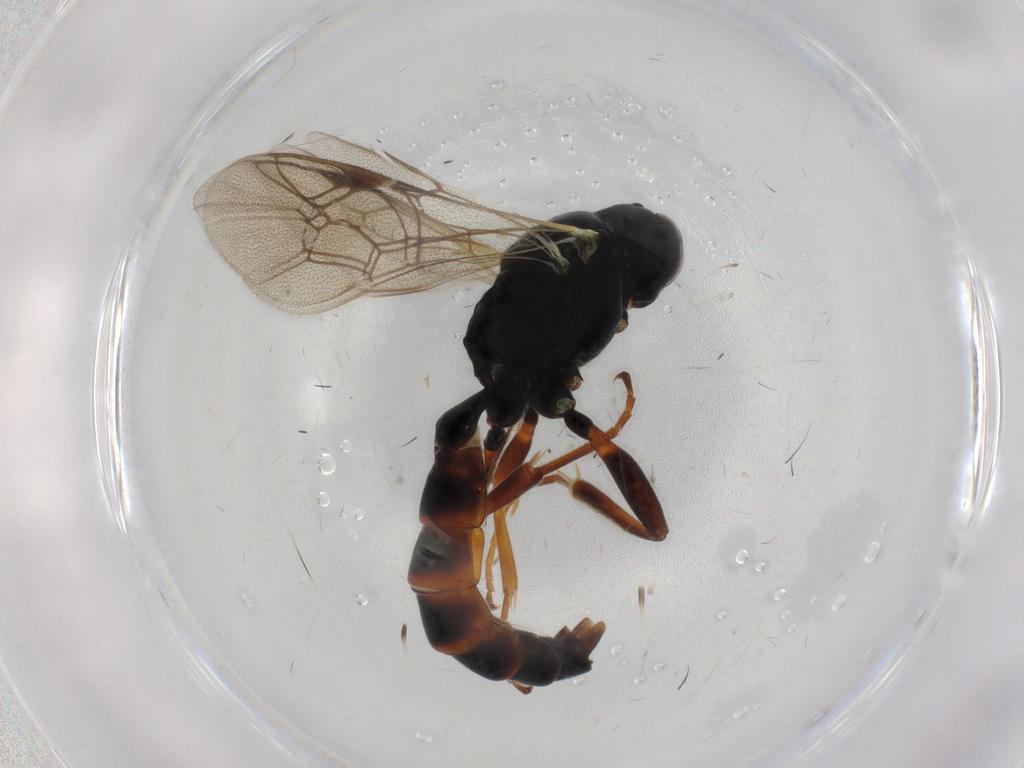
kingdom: Animalia
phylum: Arthropoda
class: Insecta
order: Hymenoptera
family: Ichneumonidae
